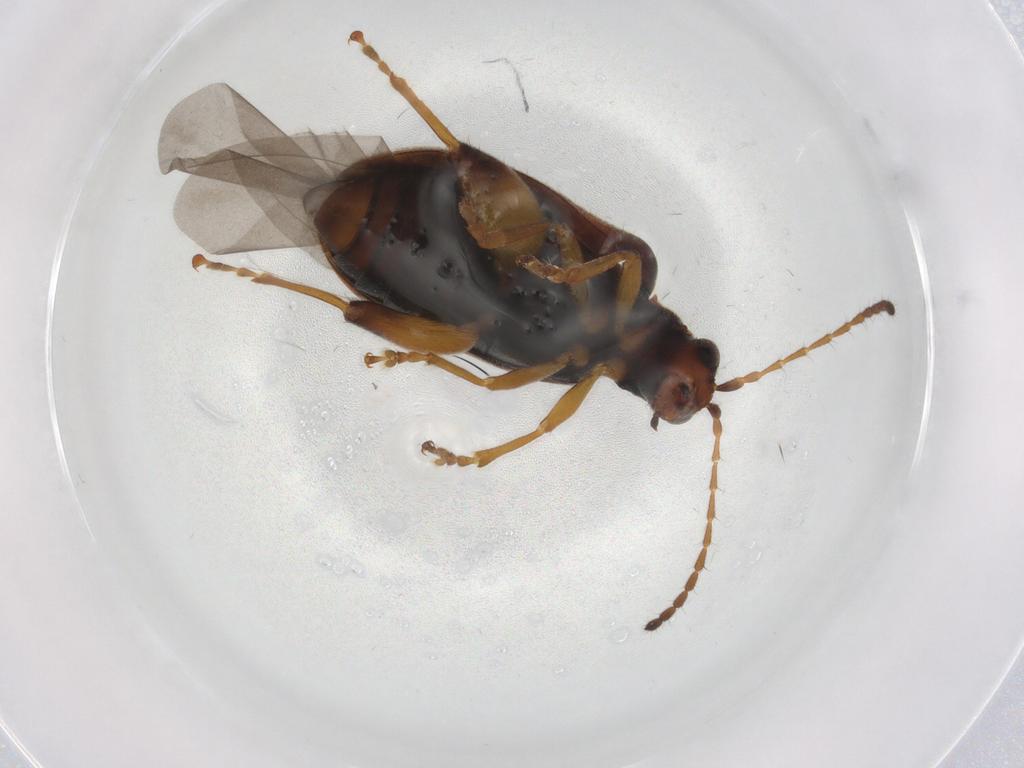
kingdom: Animalia
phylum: Arthropoda
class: Insecta
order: Coleoptera
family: Chrysomelidae
